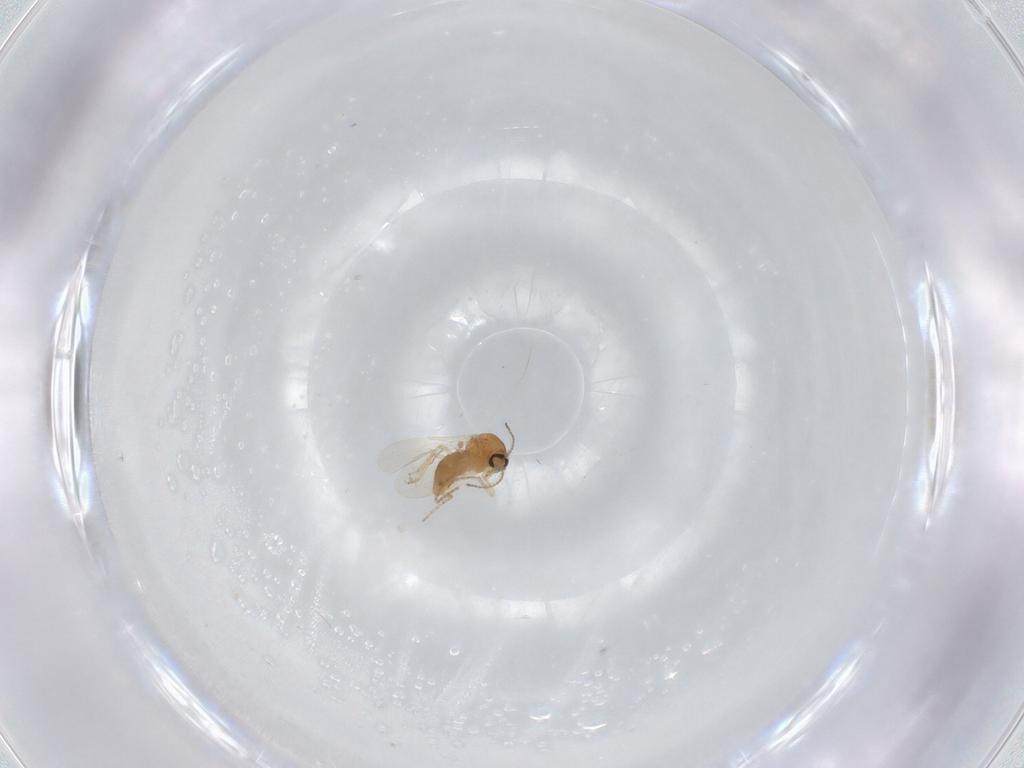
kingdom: Animalia
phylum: Arthropoda
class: Insecta
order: Diptera
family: Ceratopogonidae
